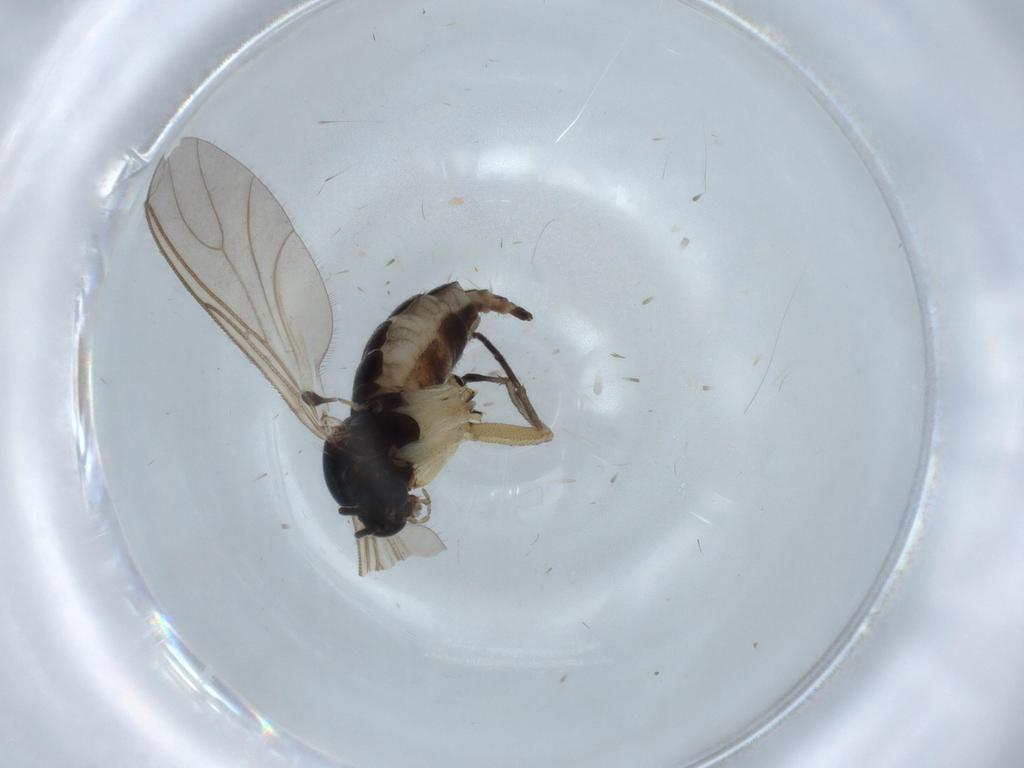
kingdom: Animalia
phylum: Arthropoda
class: Insecta
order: Diptera
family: Sciaridae
